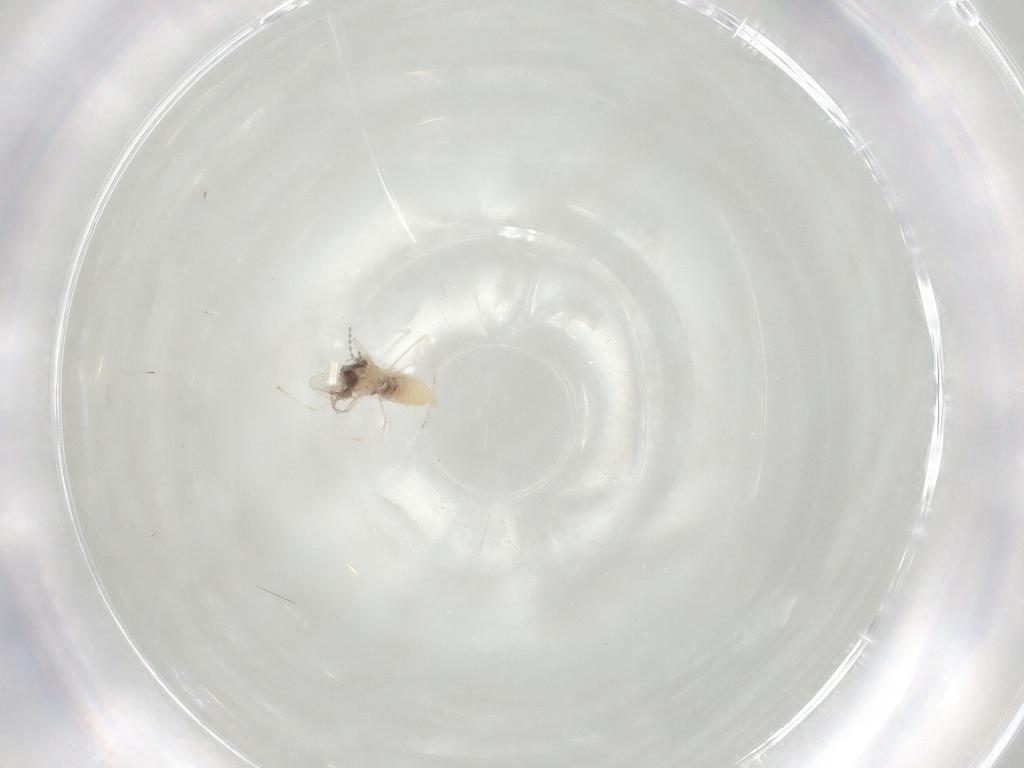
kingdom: Animalia
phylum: Arthropoda
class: Insecta
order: Diptera
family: Cecidomyiidae
